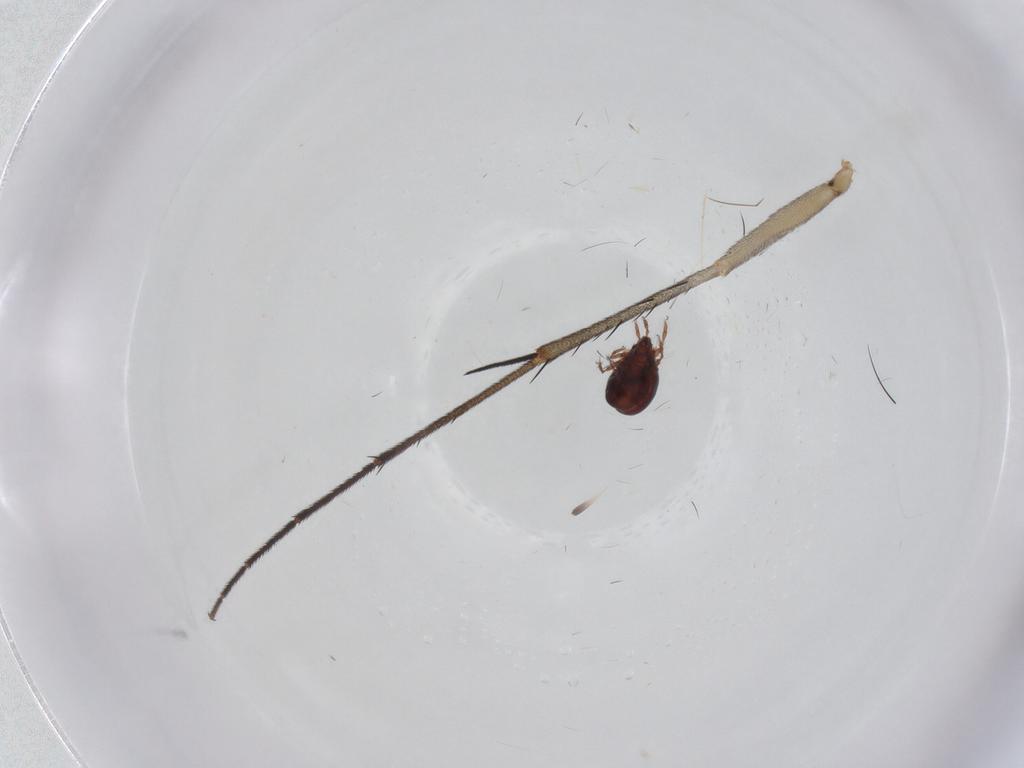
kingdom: Animalia
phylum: Arthropoda
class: Arachnida
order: Sarcoptiformes
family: Ceratozetidae
